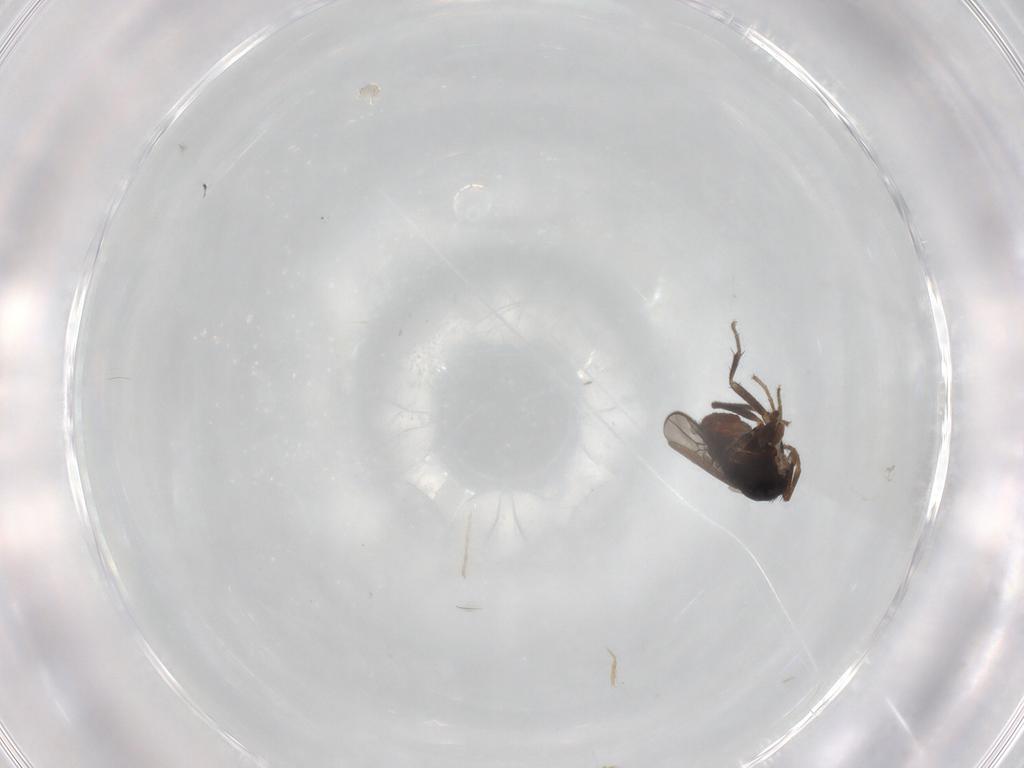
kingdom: Animalia
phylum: Arthropoda
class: Insecta
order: Diptera
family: Sphaeroceridae
